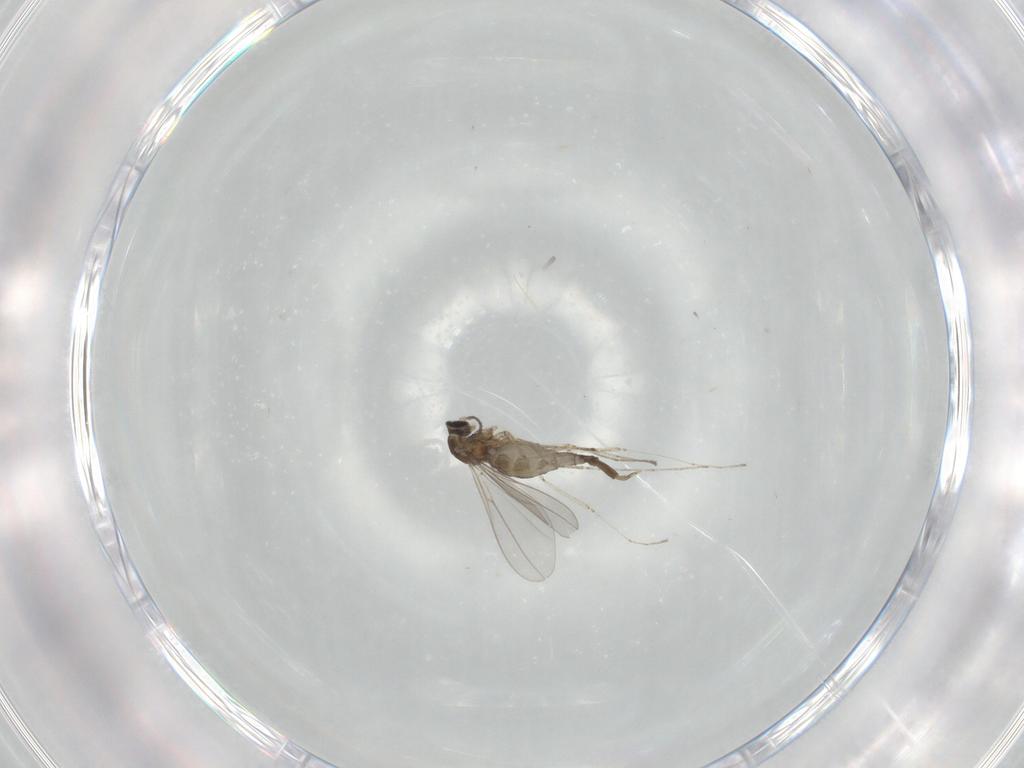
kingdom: Animalia
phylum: Arthropoda
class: Insecta
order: Diptera
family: Cecidomyiidae
